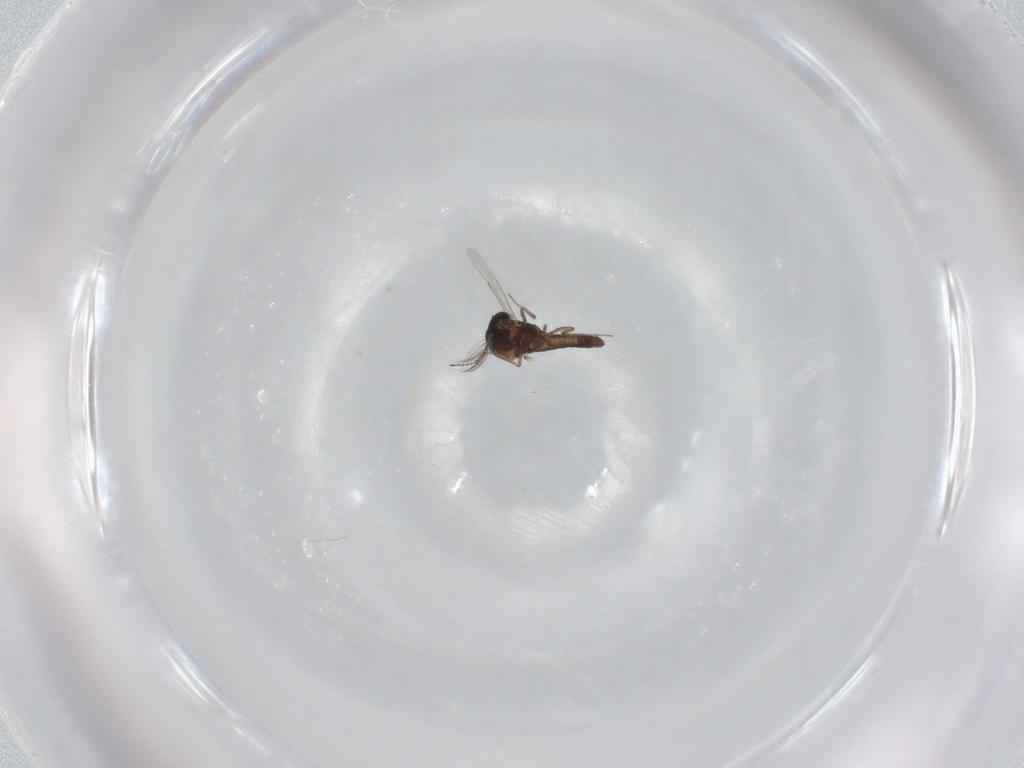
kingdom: Animalia
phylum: Arthropoda
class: Insecta
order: Diptera
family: Ceratopogonidae
